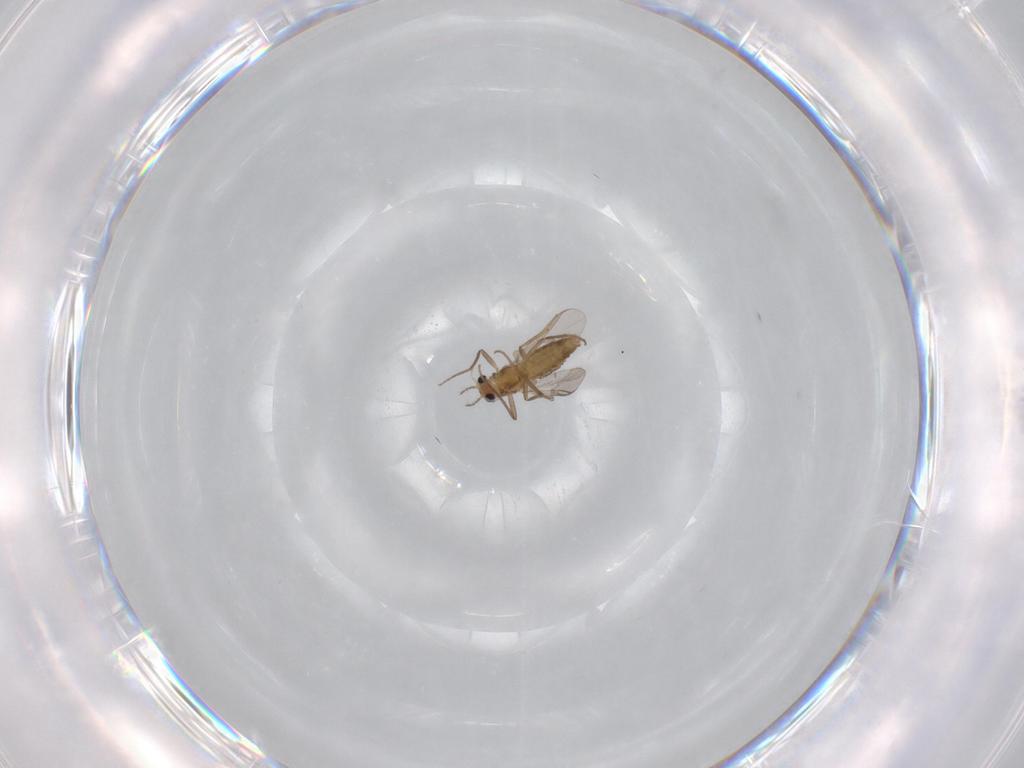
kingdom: Animalia
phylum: Arthropoda
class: Insecta
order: Diptera
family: Chironomidae
